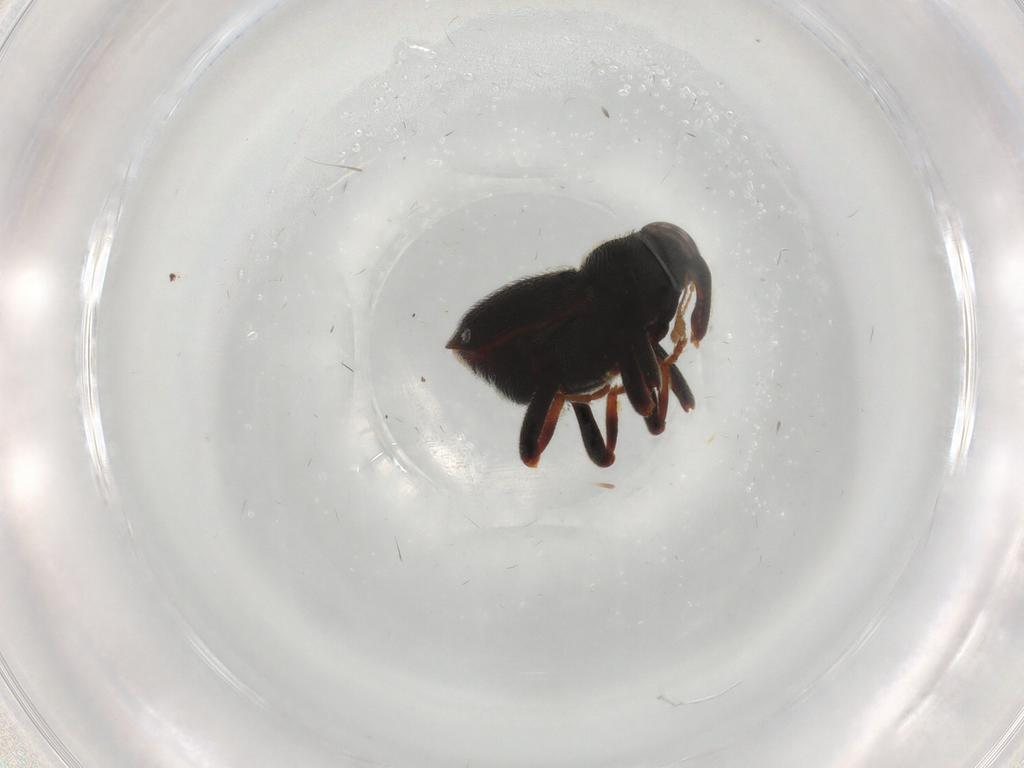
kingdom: Animalia
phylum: Arthropoda
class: Insecta
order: Coleoptera
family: Curculionidae
